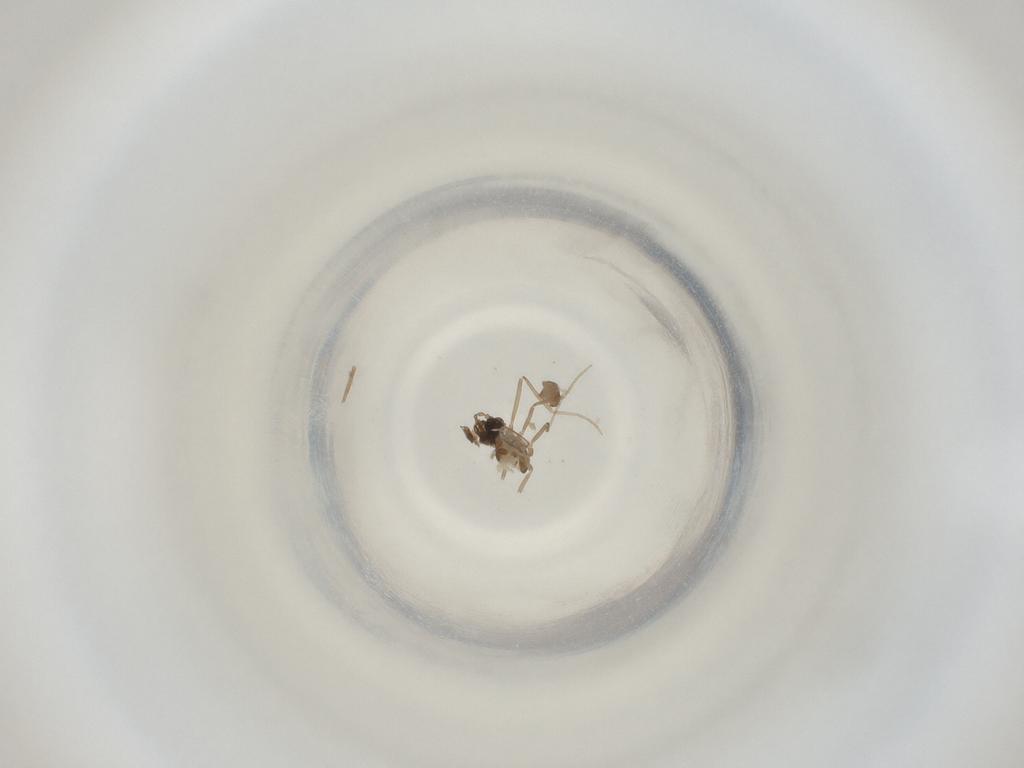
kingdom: Animalia
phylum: Arthropoda
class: Insecta
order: Diptera
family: Cecidomyiidae
